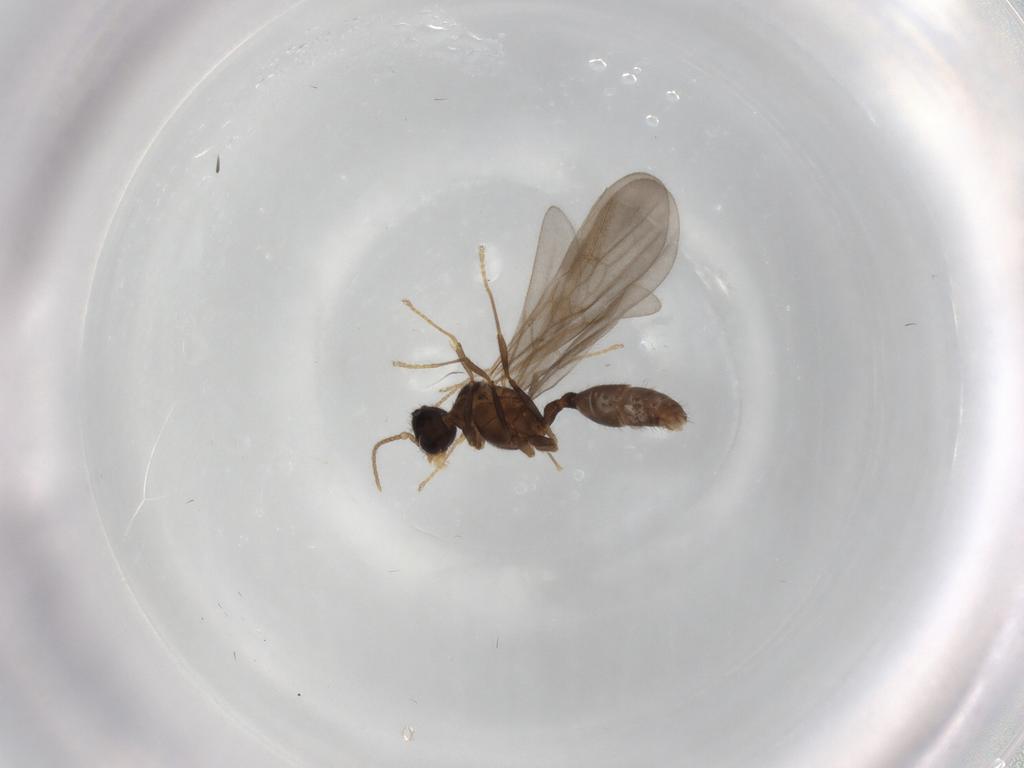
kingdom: Animalia
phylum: Arthropoda
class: Insecta
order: Hymenoptera
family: Formicidae
